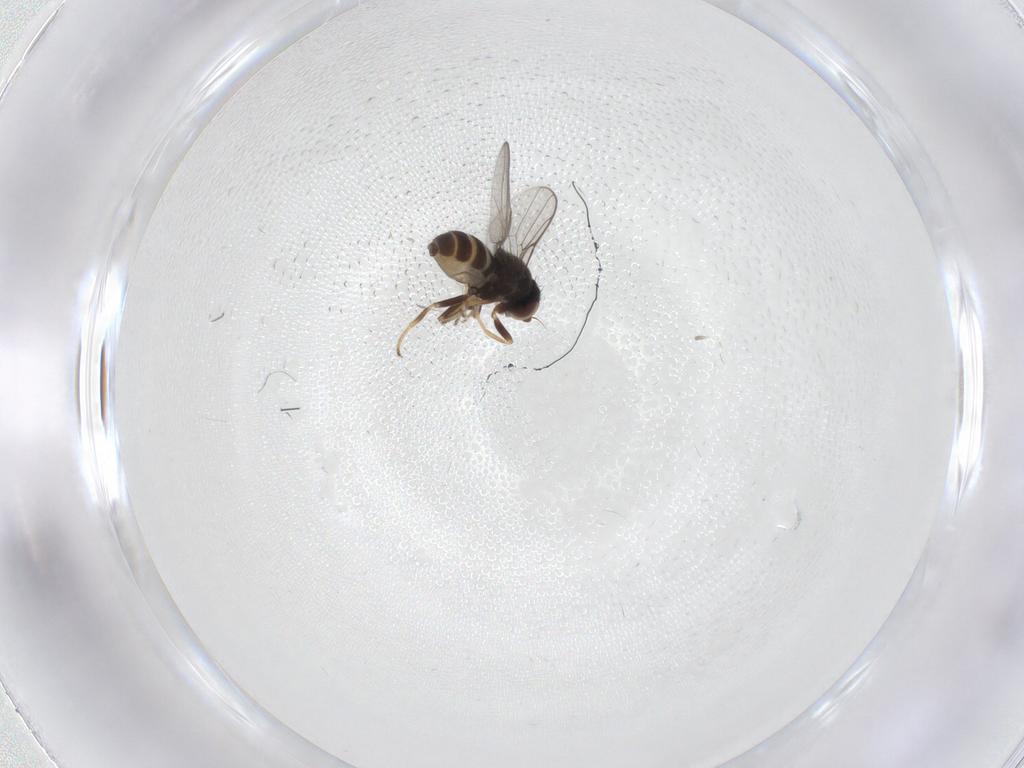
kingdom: Animalia
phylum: Arthropoda
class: Insecta
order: Diptera
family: Chloropidae
